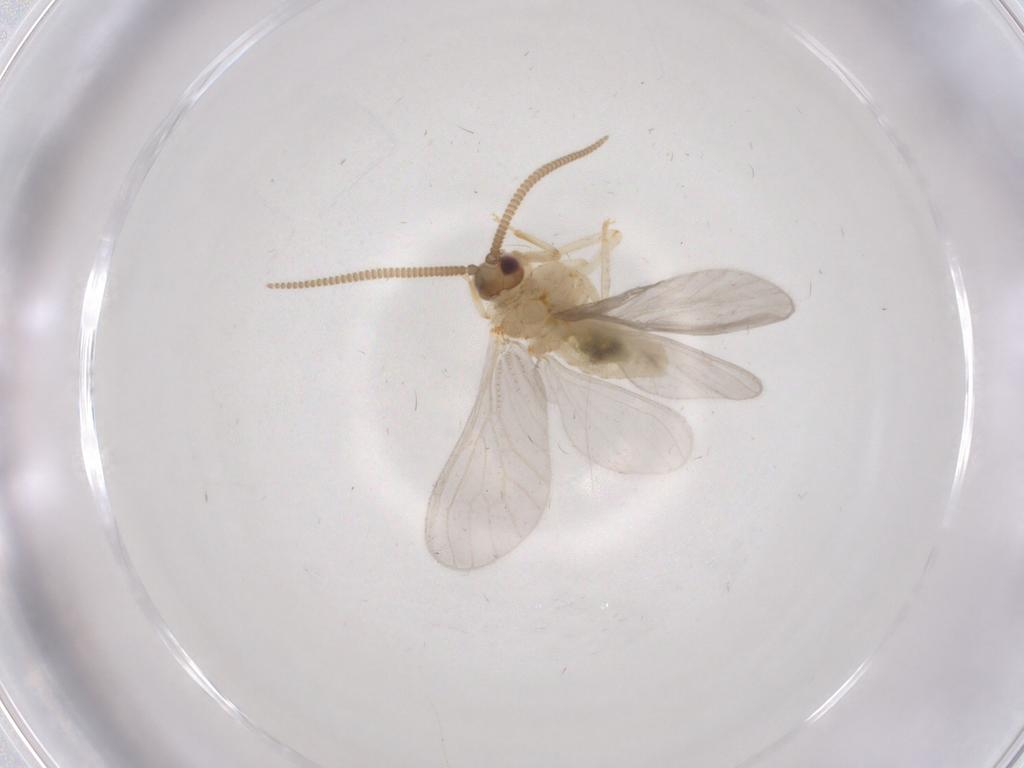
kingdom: Animalia
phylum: Arthropoda
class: Insecta
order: Neuroptera
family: Coniopterygidae
